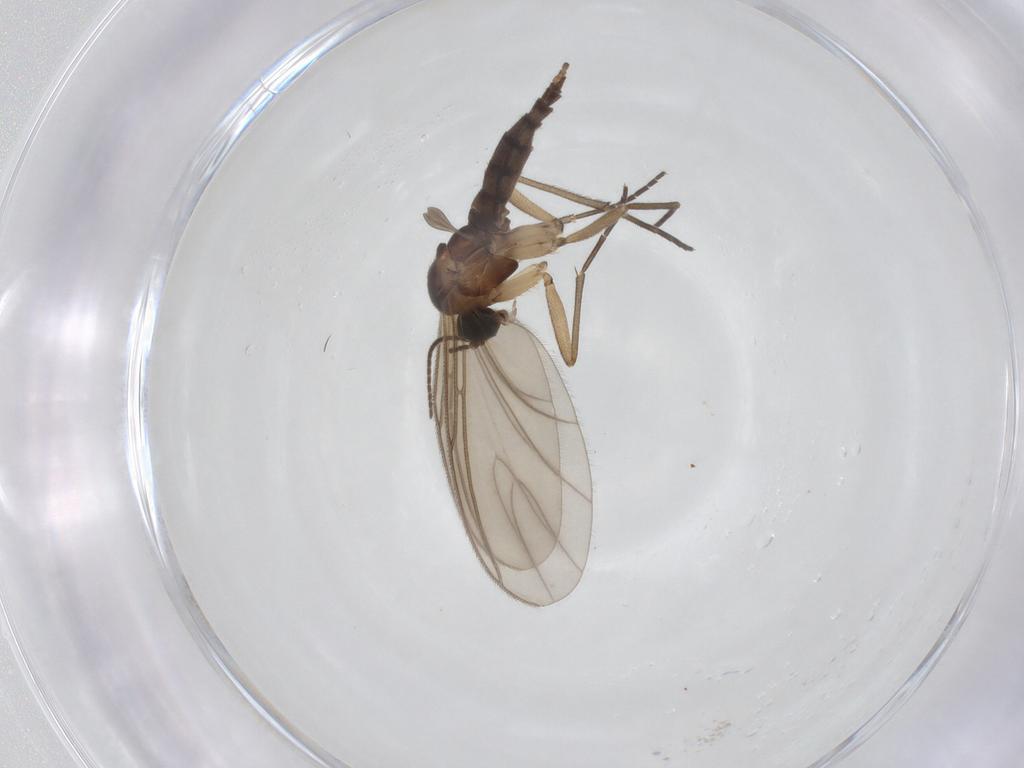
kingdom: Animalia
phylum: Arthropoda
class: Insecta
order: Diptera
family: Sciaridae
